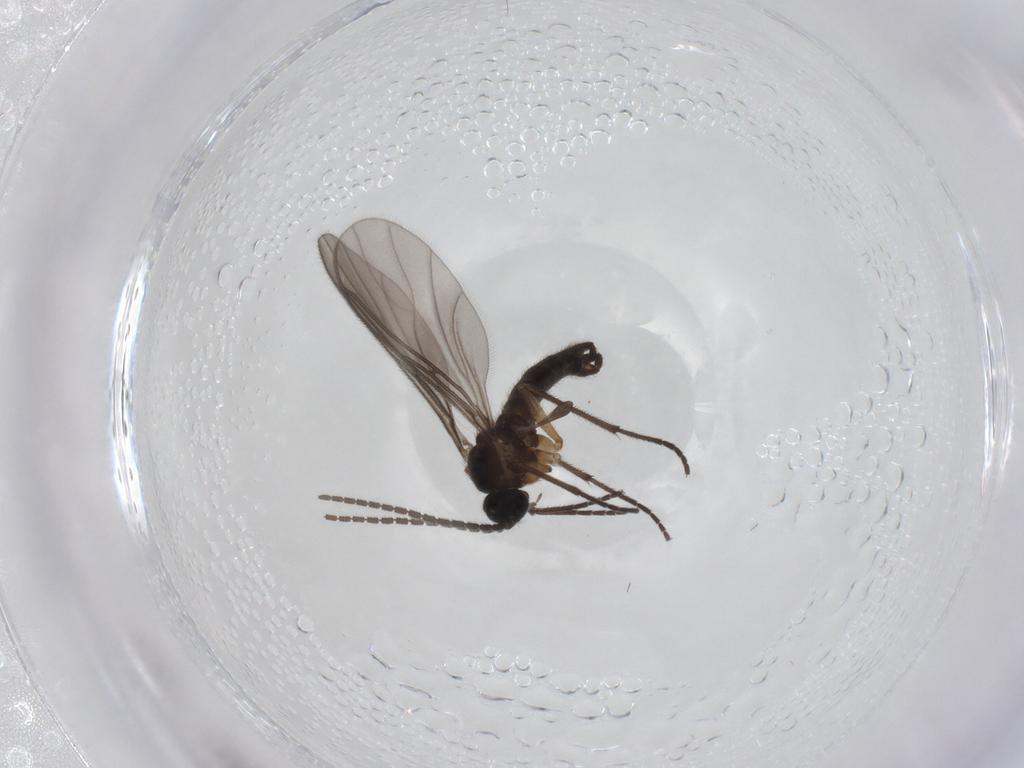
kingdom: Animalia
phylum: Arthropoda
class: Insecta
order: Diptera
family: Sciaridae
